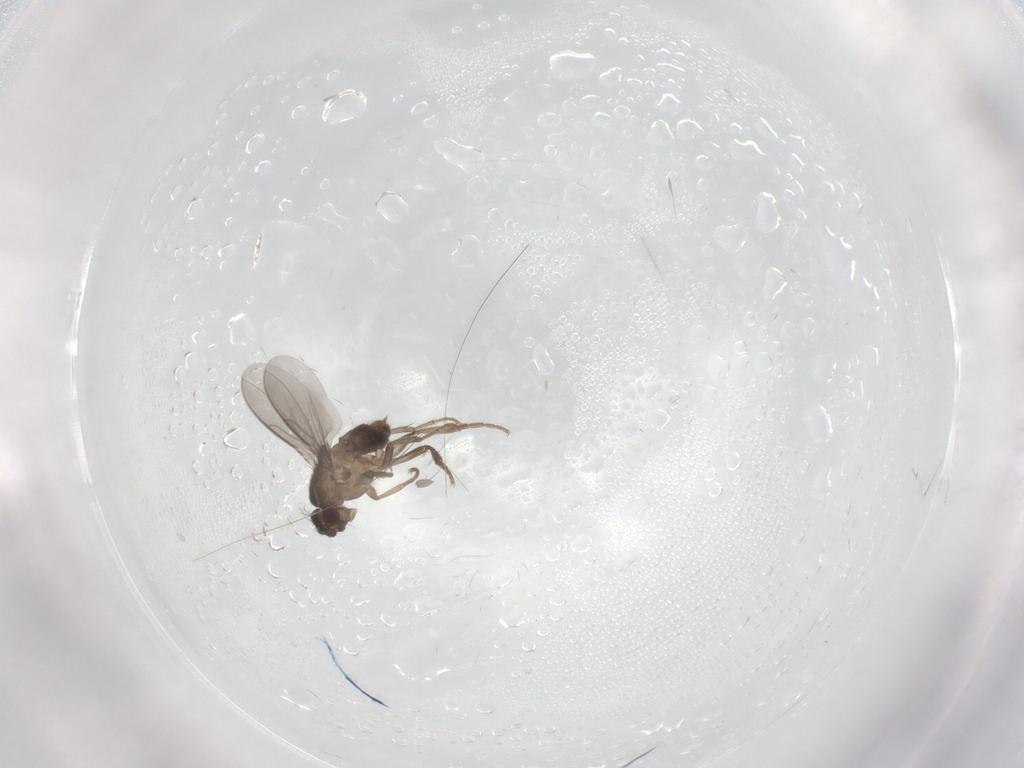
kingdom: Animalia
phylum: Arthropoda
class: Insecta
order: Diptera
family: Sphaeroceridae
